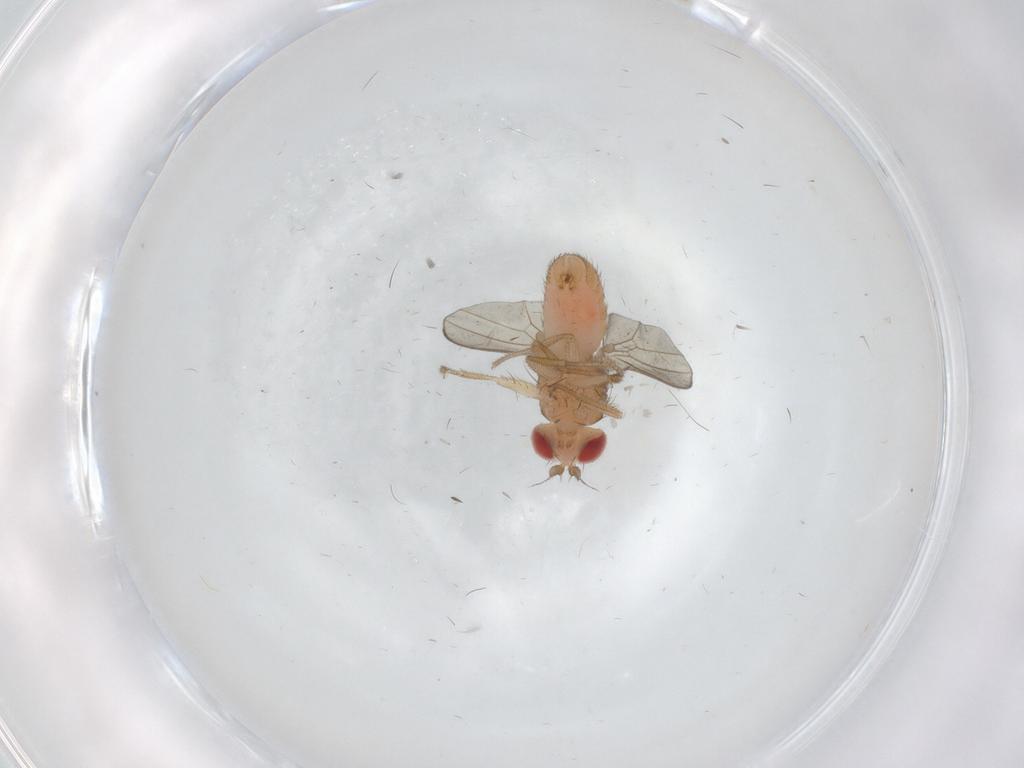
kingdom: Animalia
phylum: Arthropoda
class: Insecta
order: Diptera
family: Drosophilidae
